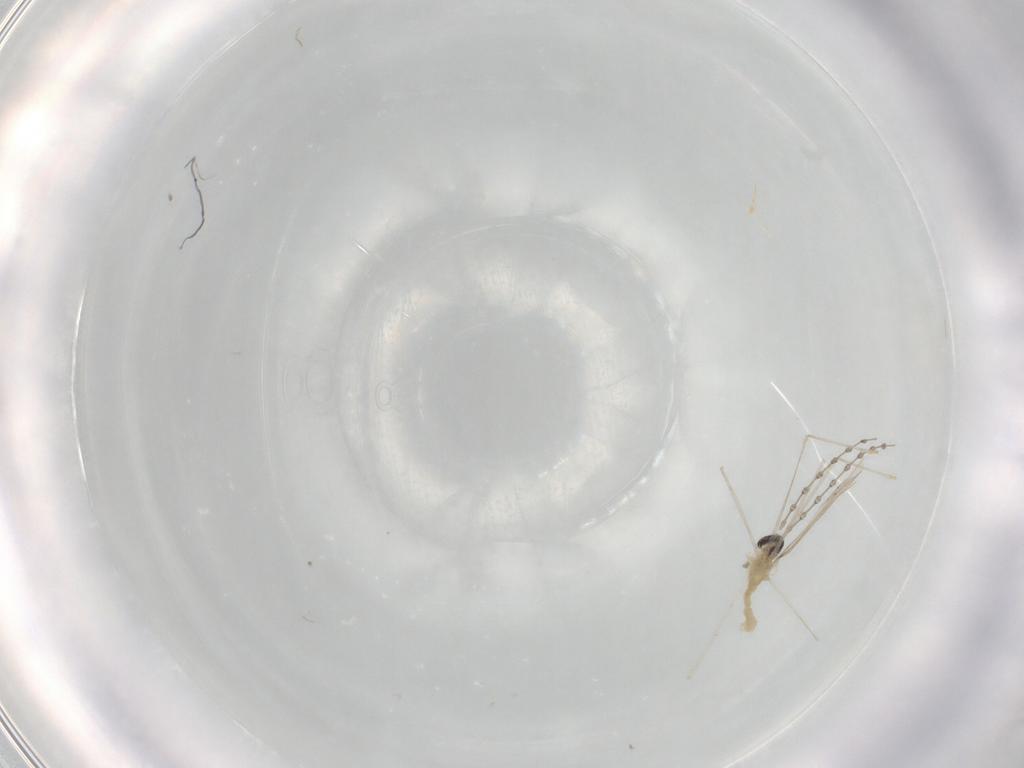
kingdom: Animalia
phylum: Arthropoda
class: Insecta
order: Diptera
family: Cecidomyiidae
